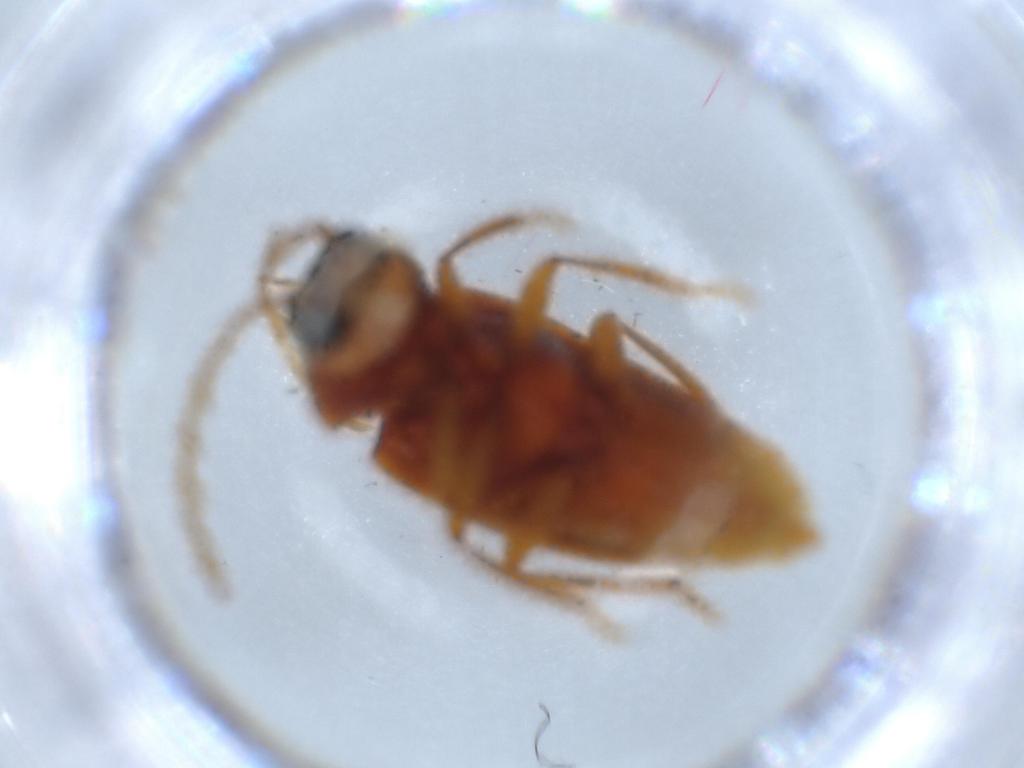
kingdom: Animalia
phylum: Arthropoda
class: Insecta
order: Coleoptera
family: Ptilodactylidae
